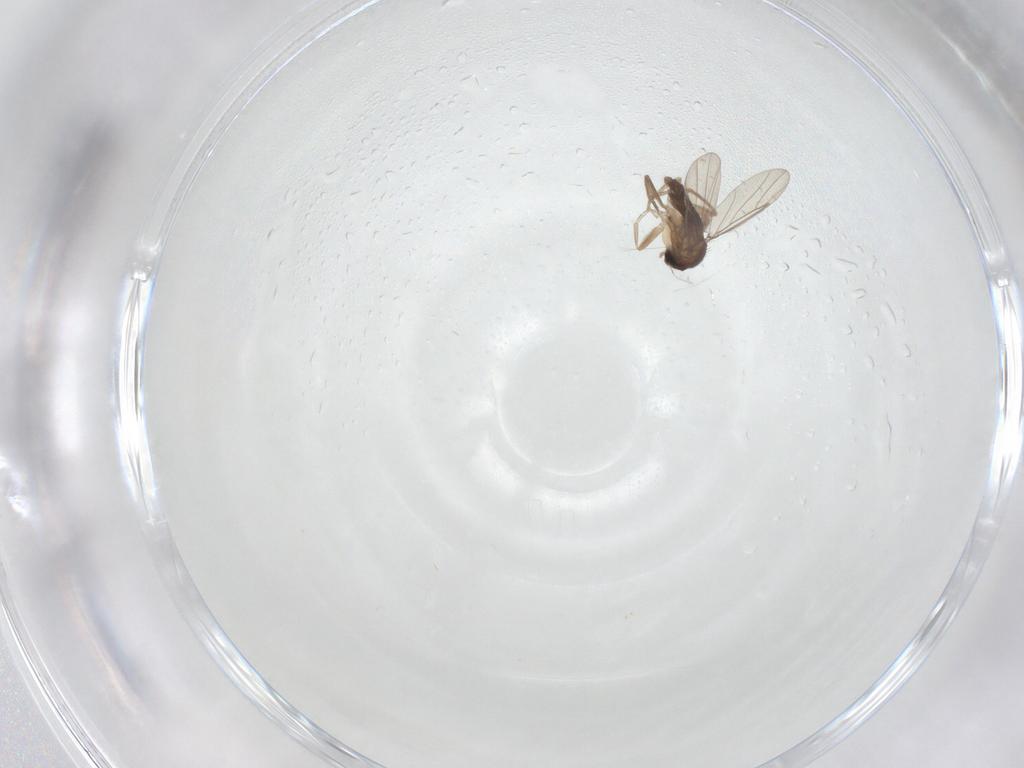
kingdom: Animalia
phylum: Arthropoda
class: Insecta
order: Diptera
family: Phoridae
